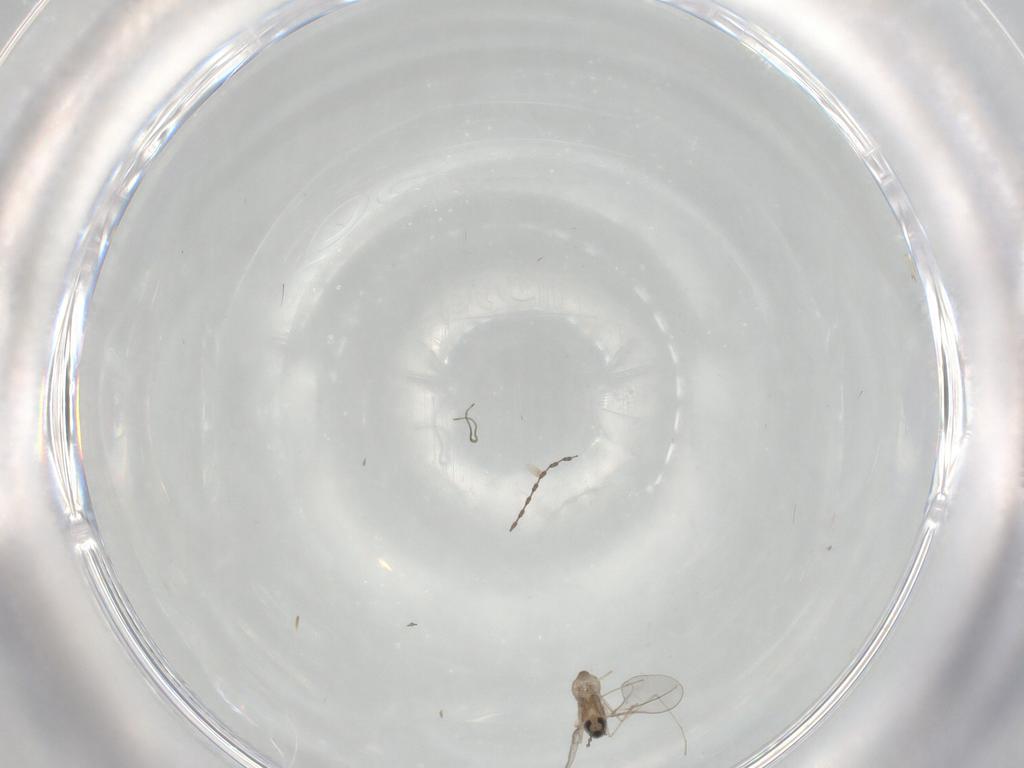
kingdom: Animalia
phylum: Arthropoda
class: Insecta
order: Diptera
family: Cecidomyiidae
